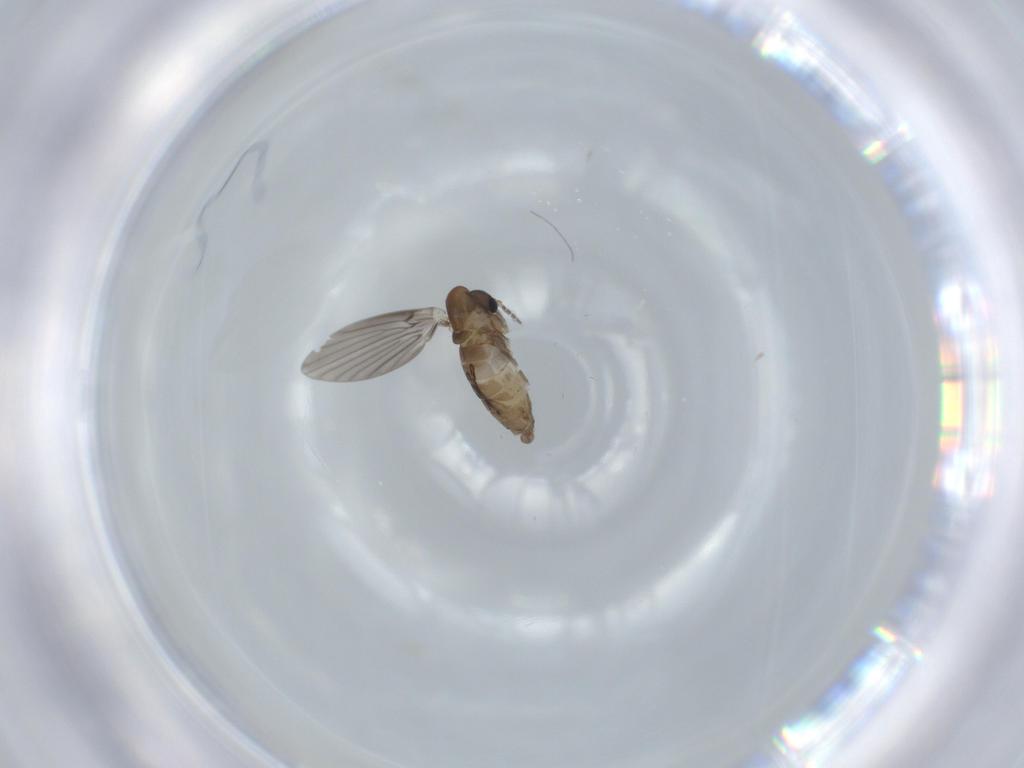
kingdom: Animalia
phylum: Arthropoda
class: Insecta
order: Diptera
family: Psychodidae
